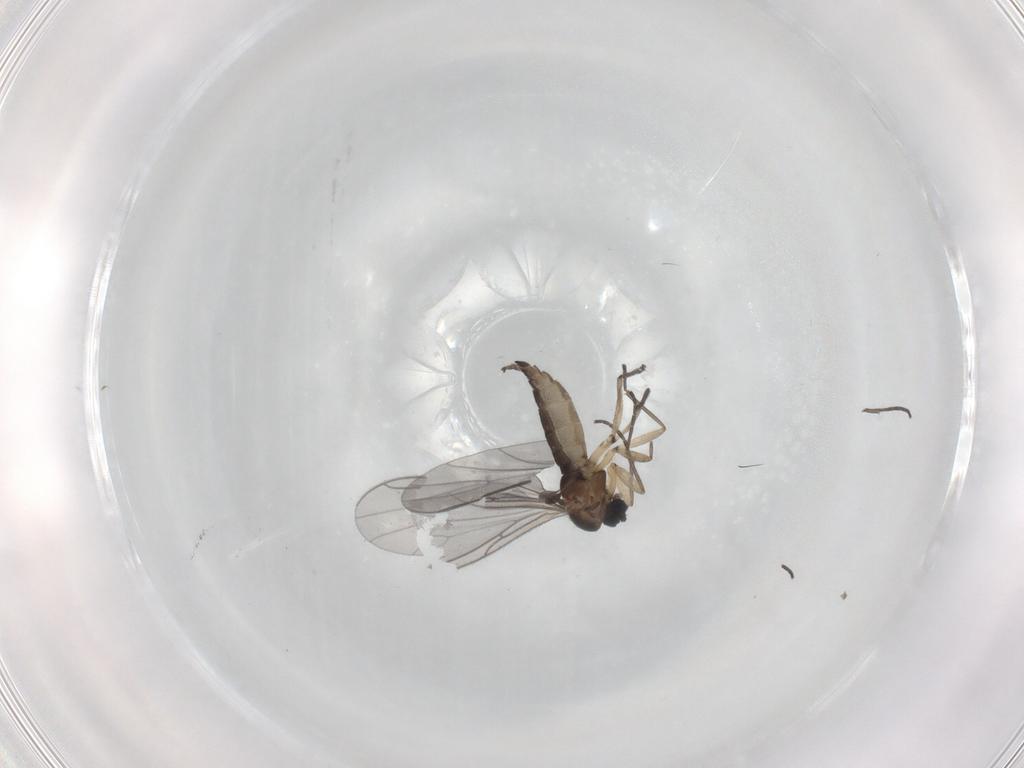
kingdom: Animalia
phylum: Arthropoda
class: Insecta
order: Diptera
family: Sciaridae
